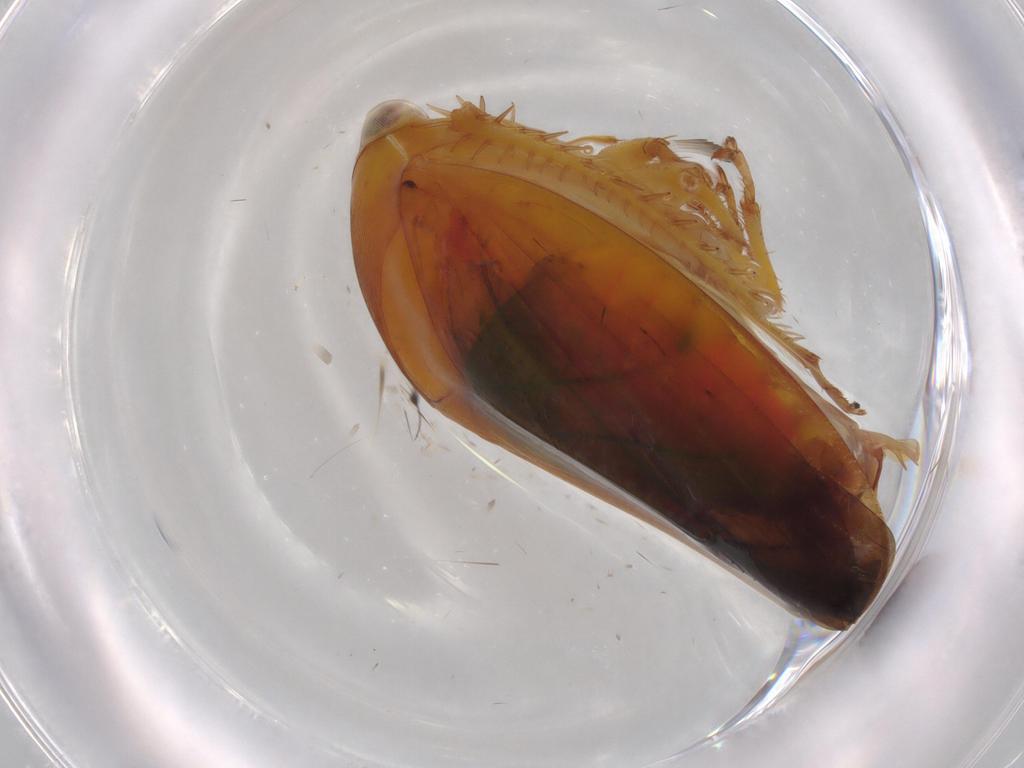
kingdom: Animalia
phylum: Arthropoda
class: Insecta
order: Hemiptera
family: Cicadellidae
